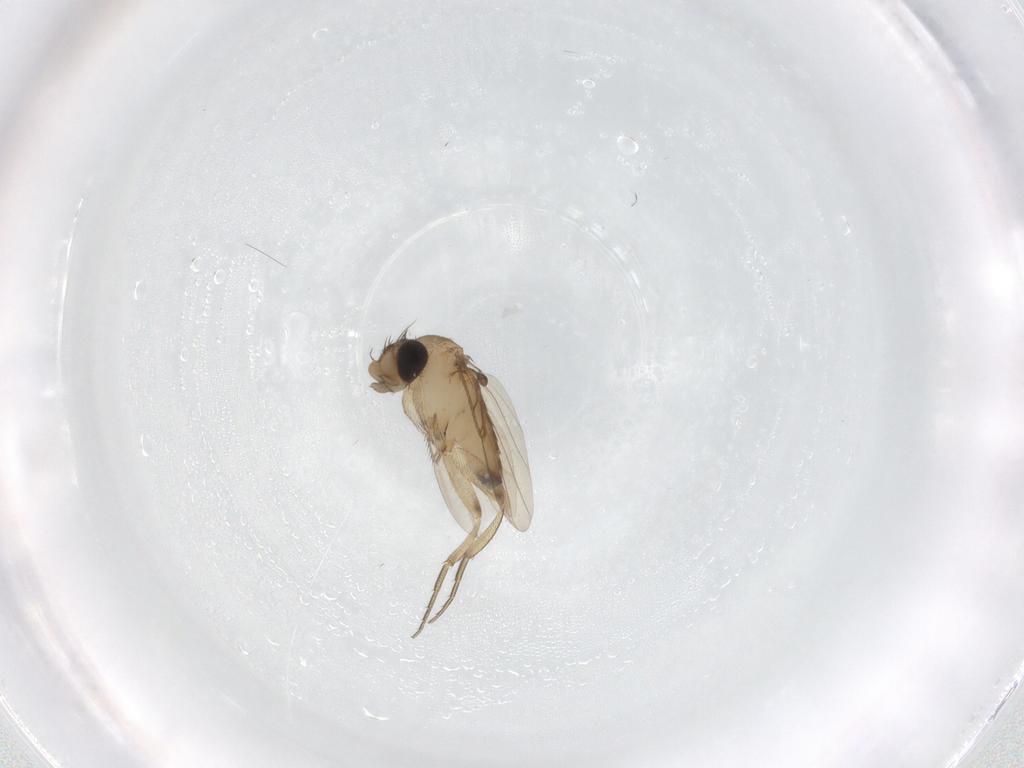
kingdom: Animalia
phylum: Arthropoda
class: Insecta
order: Diptera
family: Phoridae
